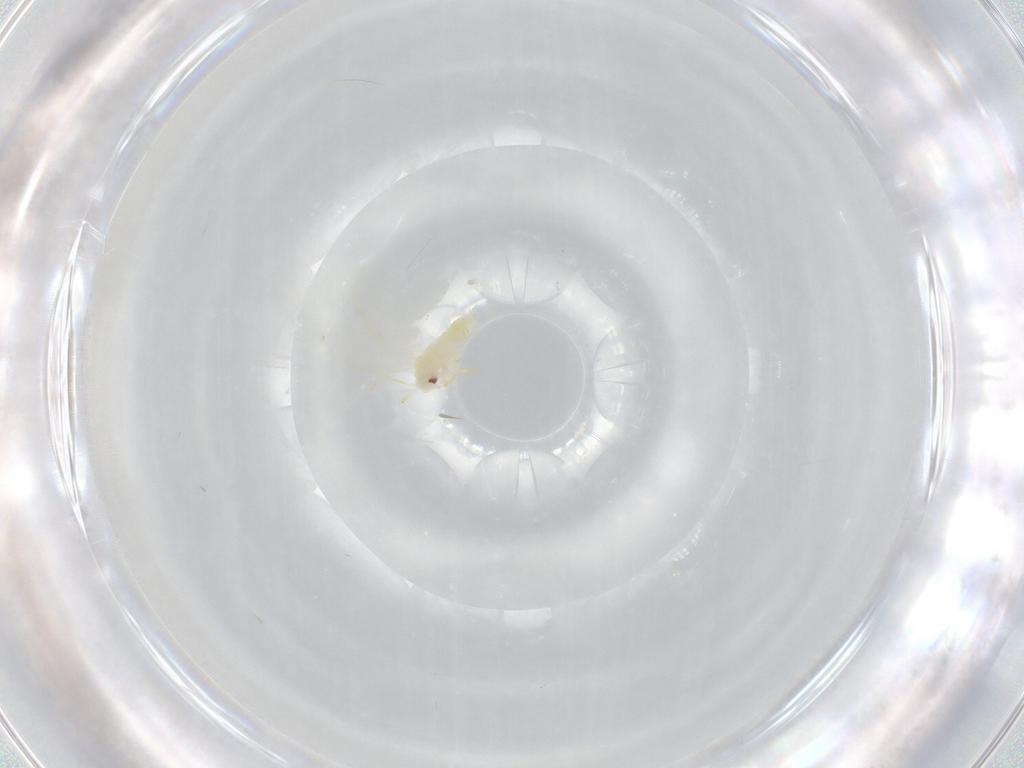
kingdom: Animalia
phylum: Arthropoda
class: Insecta
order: Hemiptera
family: Aleyrodidae
